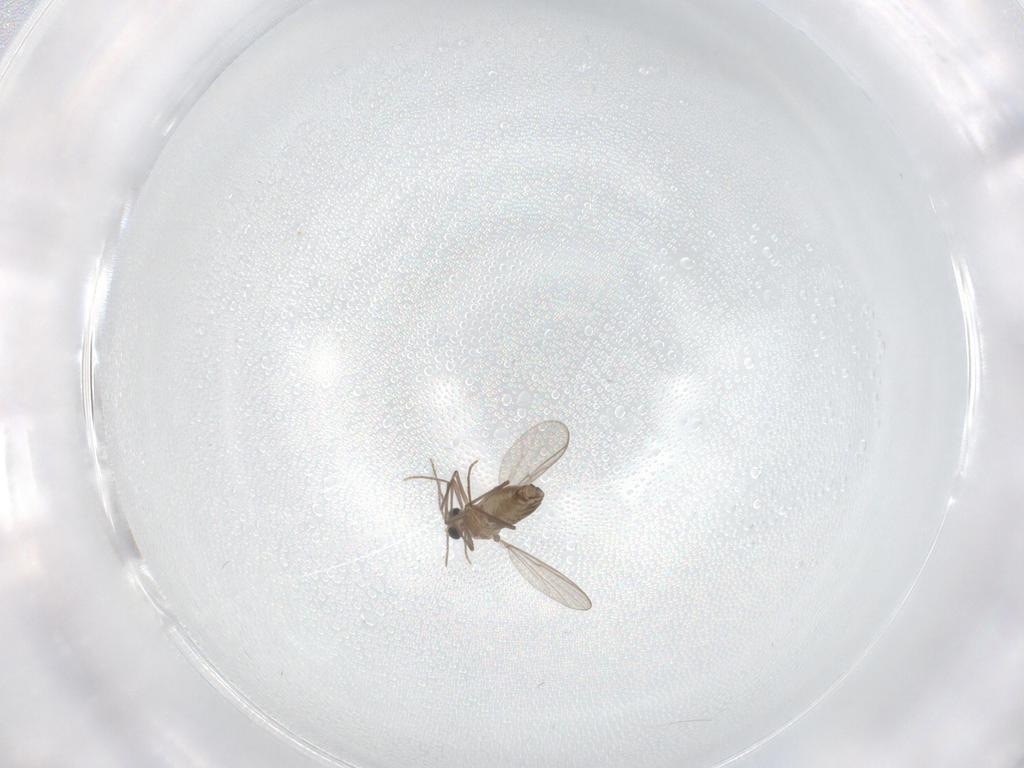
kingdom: Animalia
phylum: Arthropoda
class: Insecta
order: Diptera
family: Chironomidae
